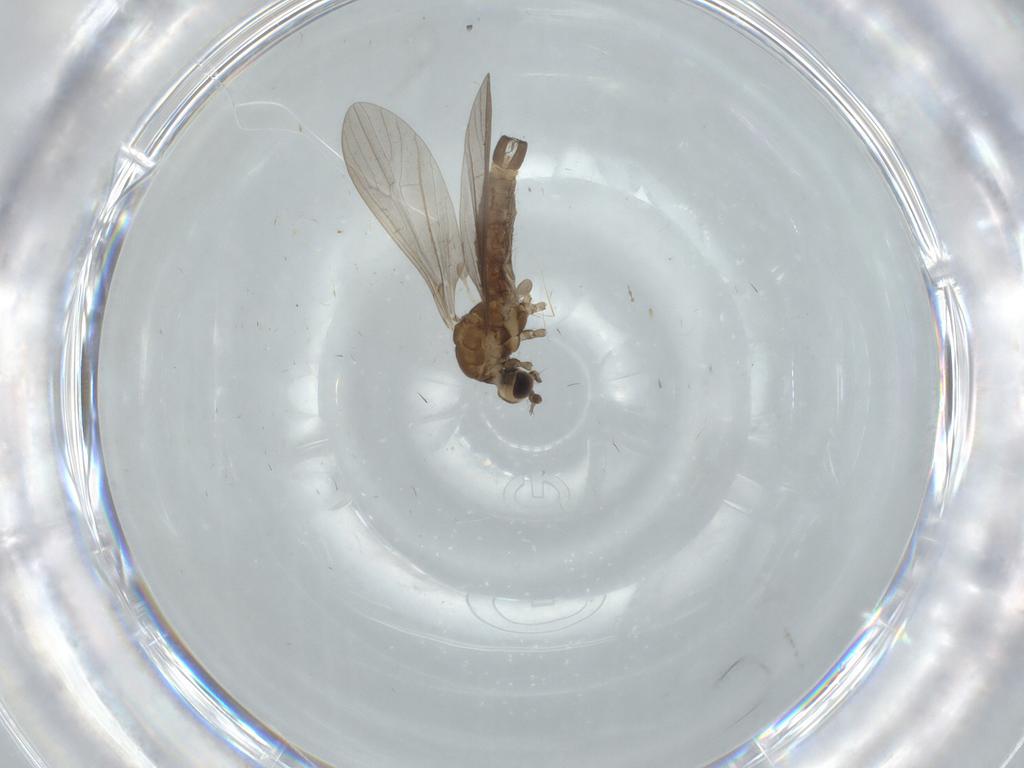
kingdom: Animalia
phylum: Arthropoda
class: Insecta
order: Diptera
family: Limoniidae
